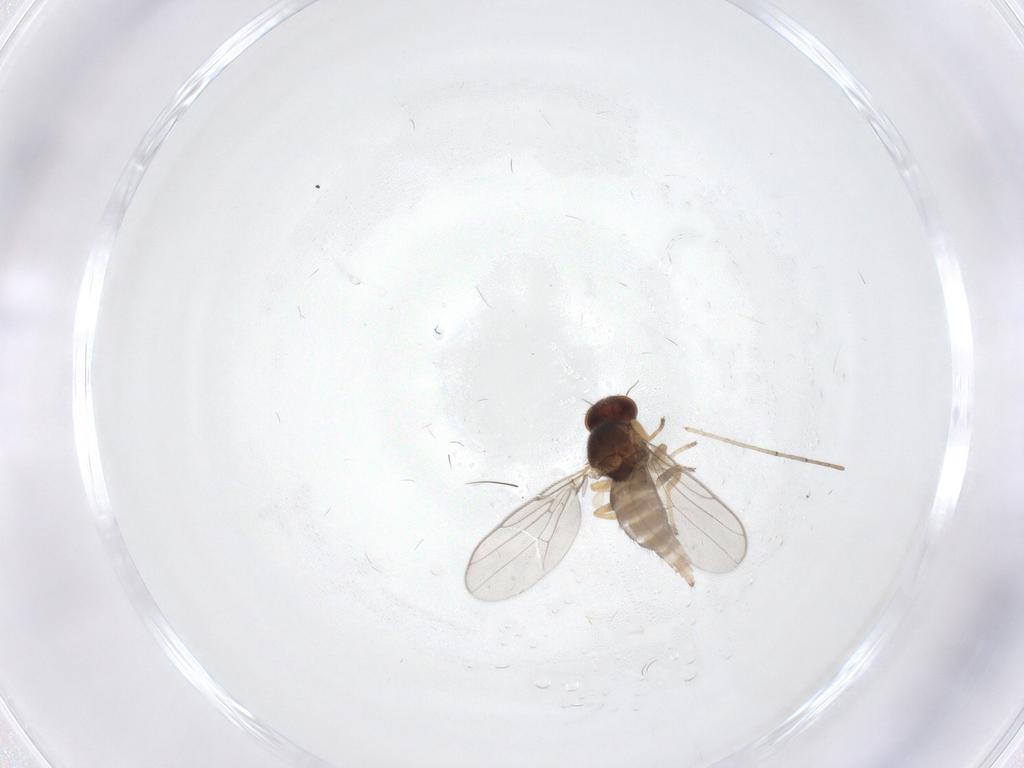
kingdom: Animalia
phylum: Arthropoda
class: Insecta
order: Diptera
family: Chloropidae
